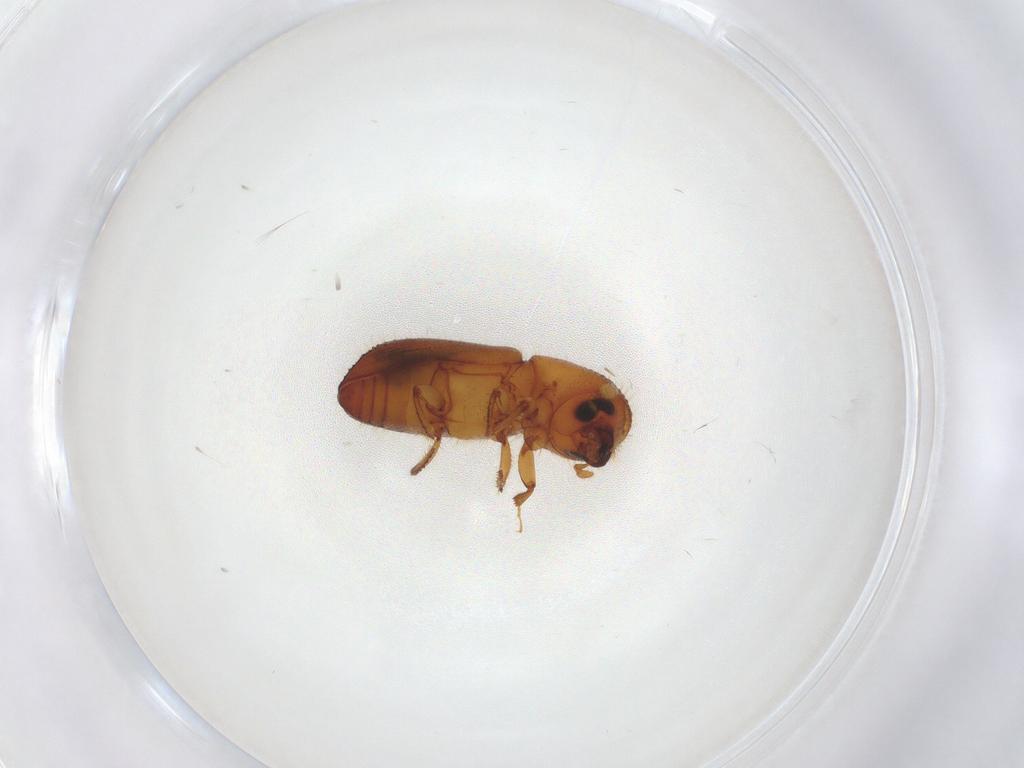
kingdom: Animalia
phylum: Arthropoda
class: Insecta
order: Coleoptera
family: Curculionidae
